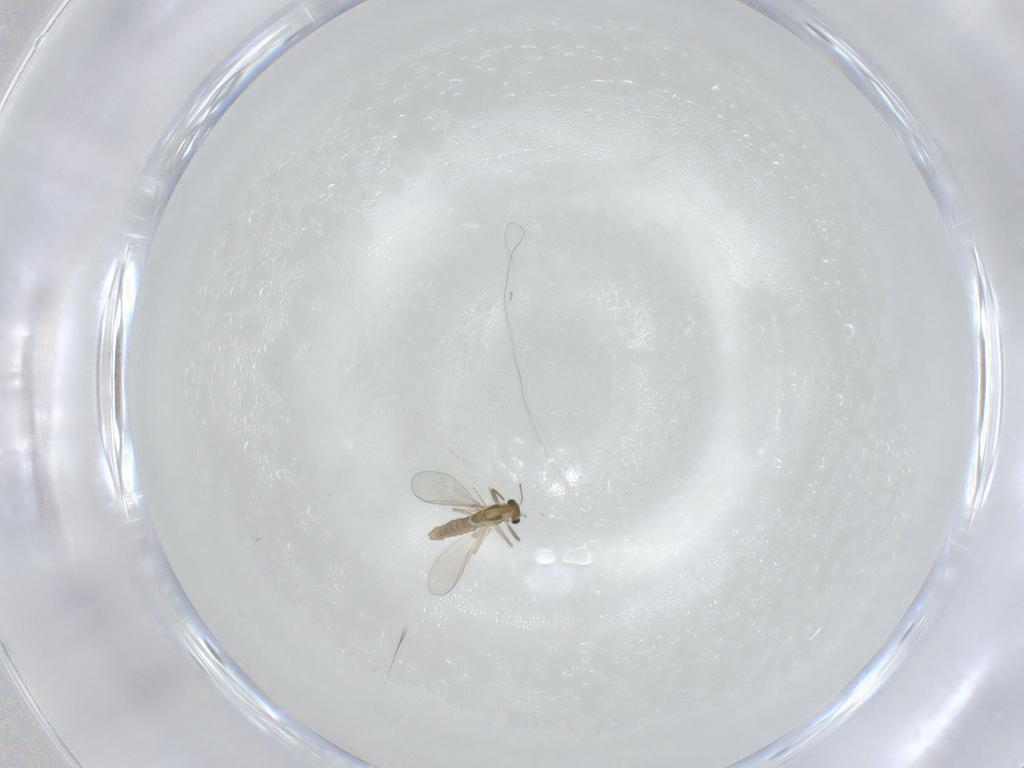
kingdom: Animalia
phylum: Arthropoda
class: Insecta
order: Diptera
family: Chironomidae
